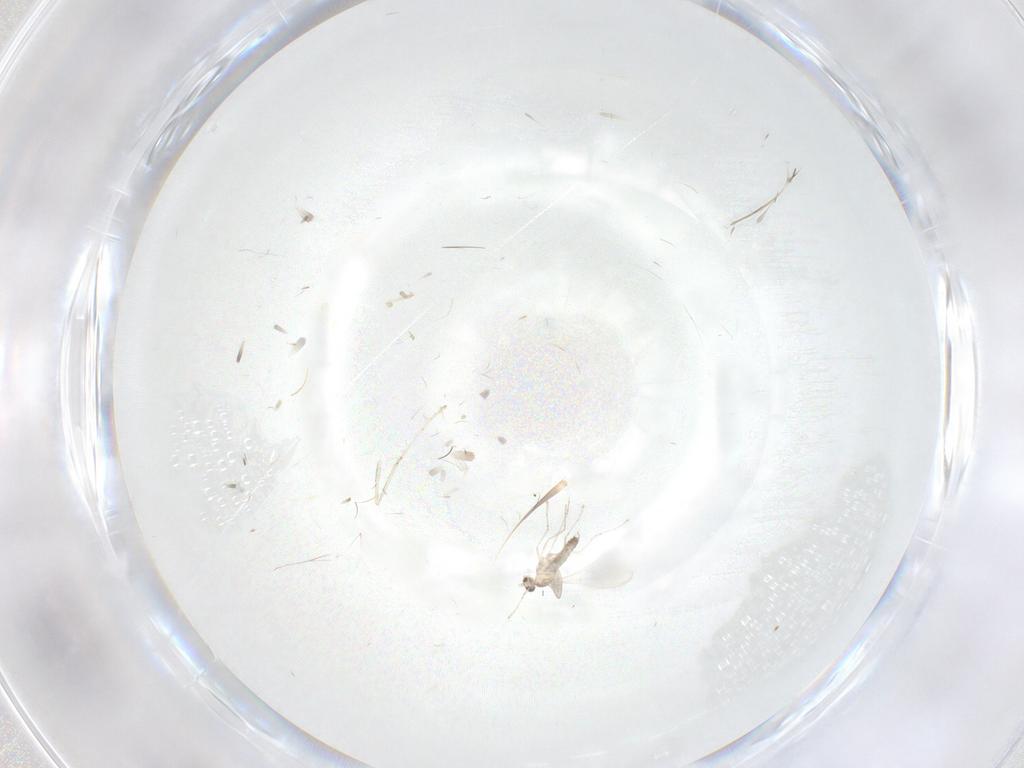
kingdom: Animalia
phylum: Arthropoda
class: Insecta
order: Diptera
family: Cecidomyiidae
